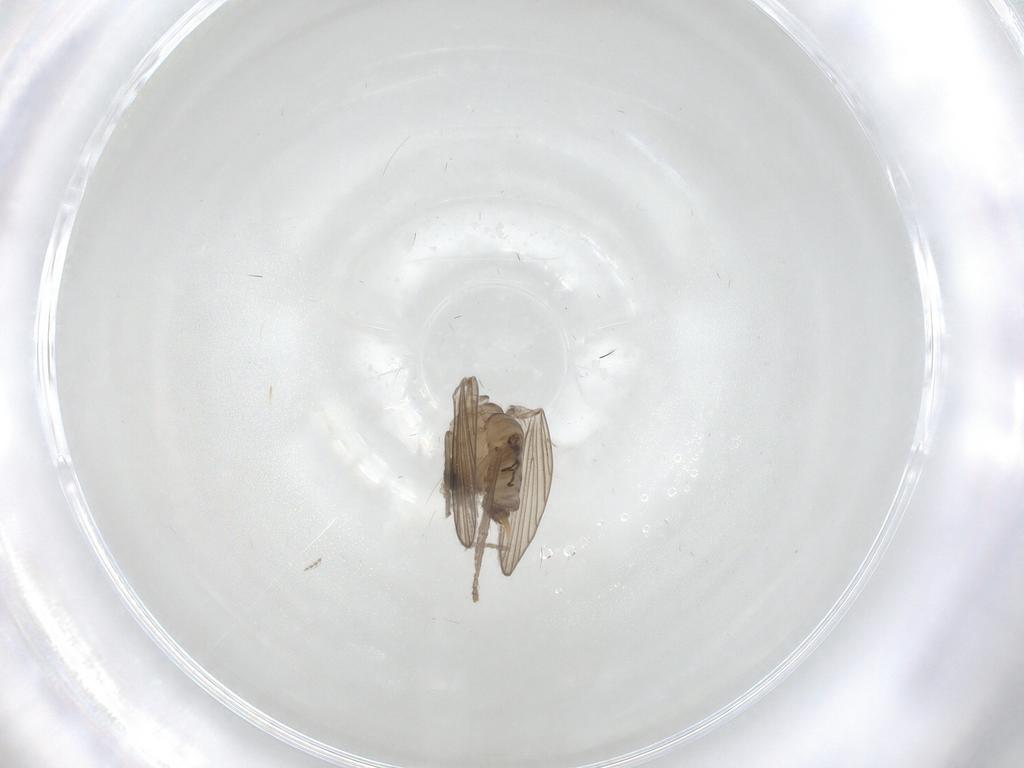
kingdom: Animalia
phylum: Arthropoda
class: Insecta
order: Diptera
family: Psychodidae
